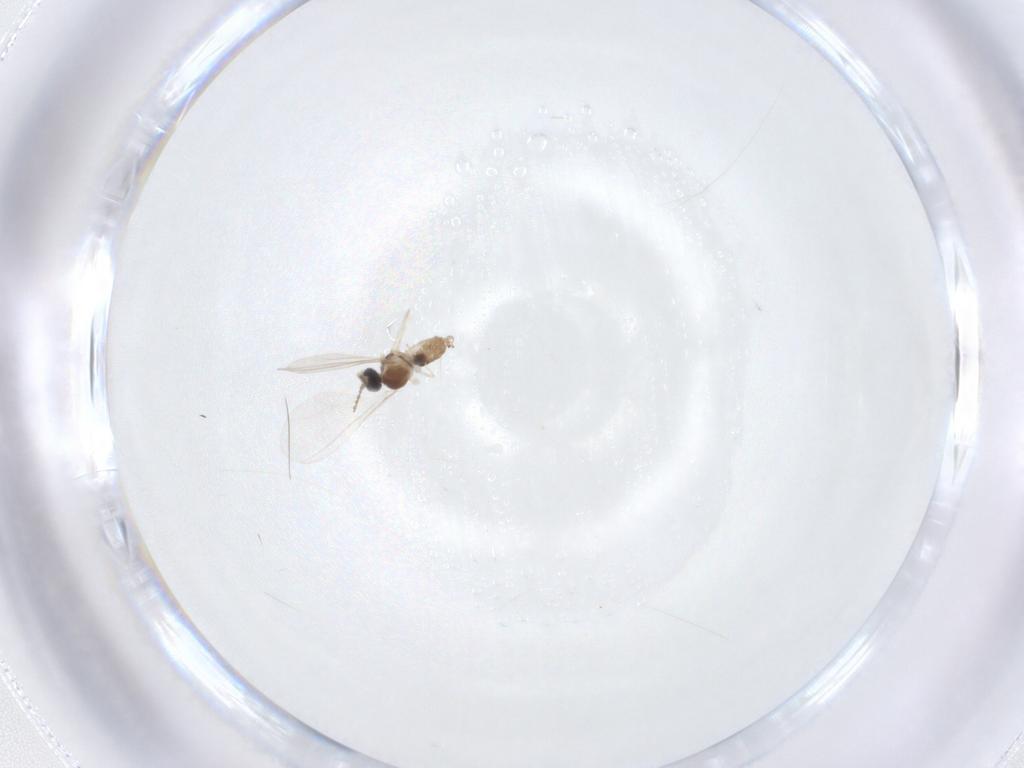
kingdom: Animalia
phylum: Arthropoda
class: Insecta
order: Diptera
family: Cecidomyiidae
